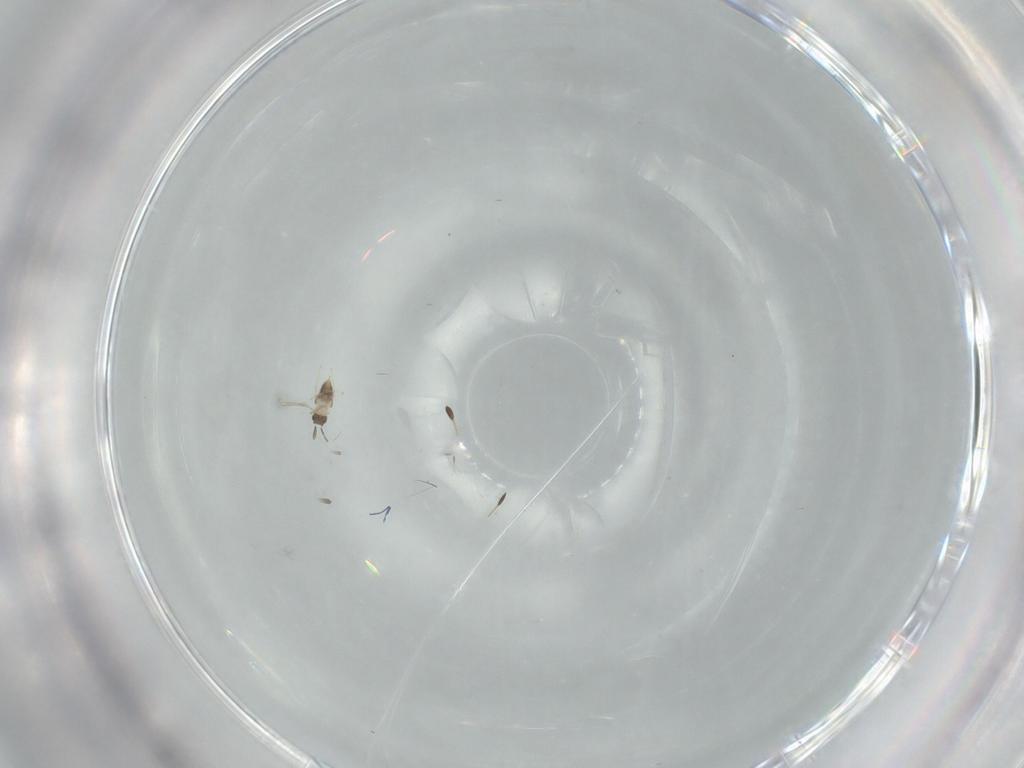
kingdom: Animalia
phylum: Arthropoda
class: Insecta
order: Hymenoptera
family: Mymaridae
